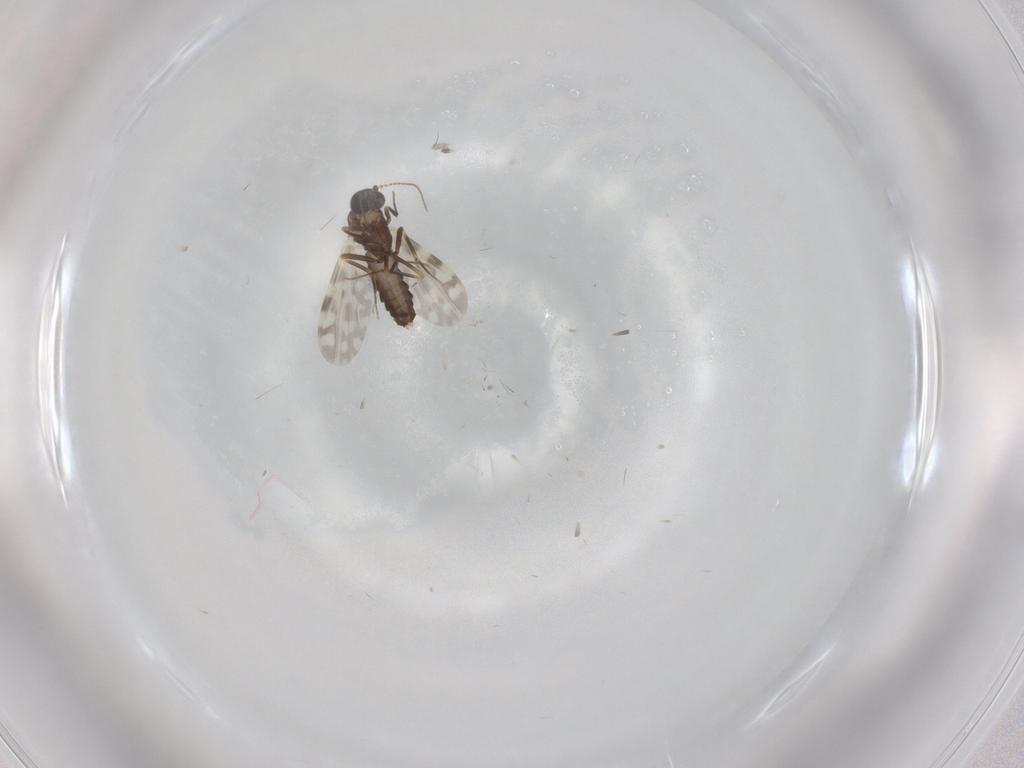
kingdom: Animalia
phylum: Arthropoda
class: Insecta
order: Diptera
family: Ceratopogonidae
